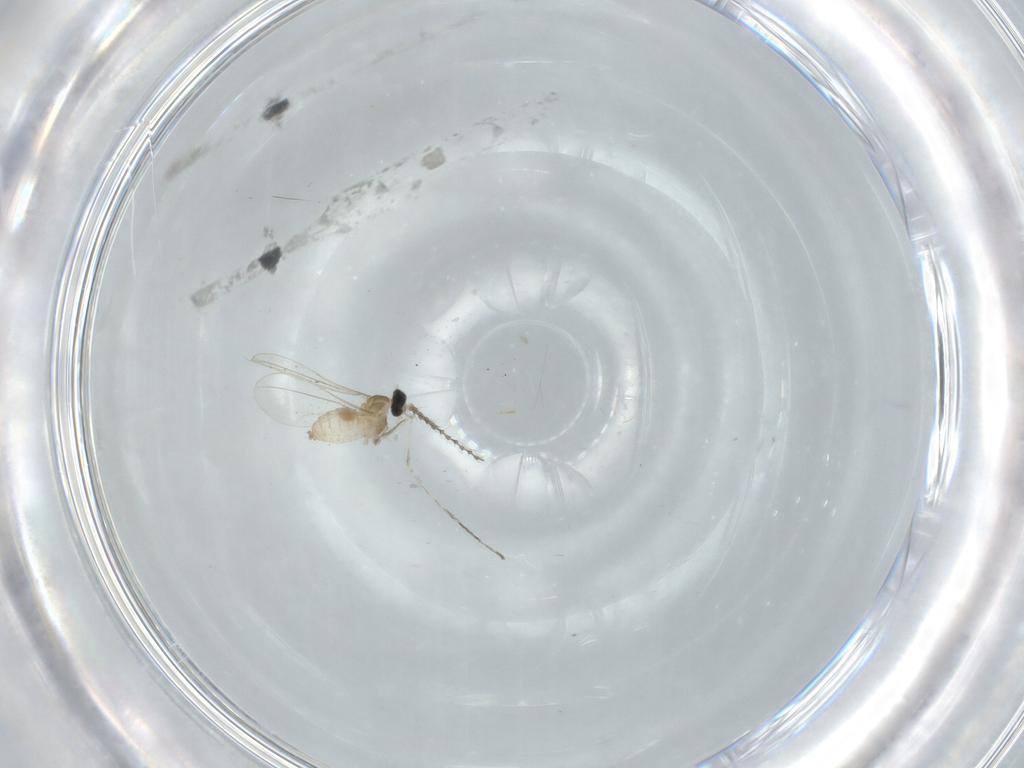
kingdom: Animalia
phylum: Arthropoda
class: Insecta
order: Diptera
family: Cecidomyiidae
